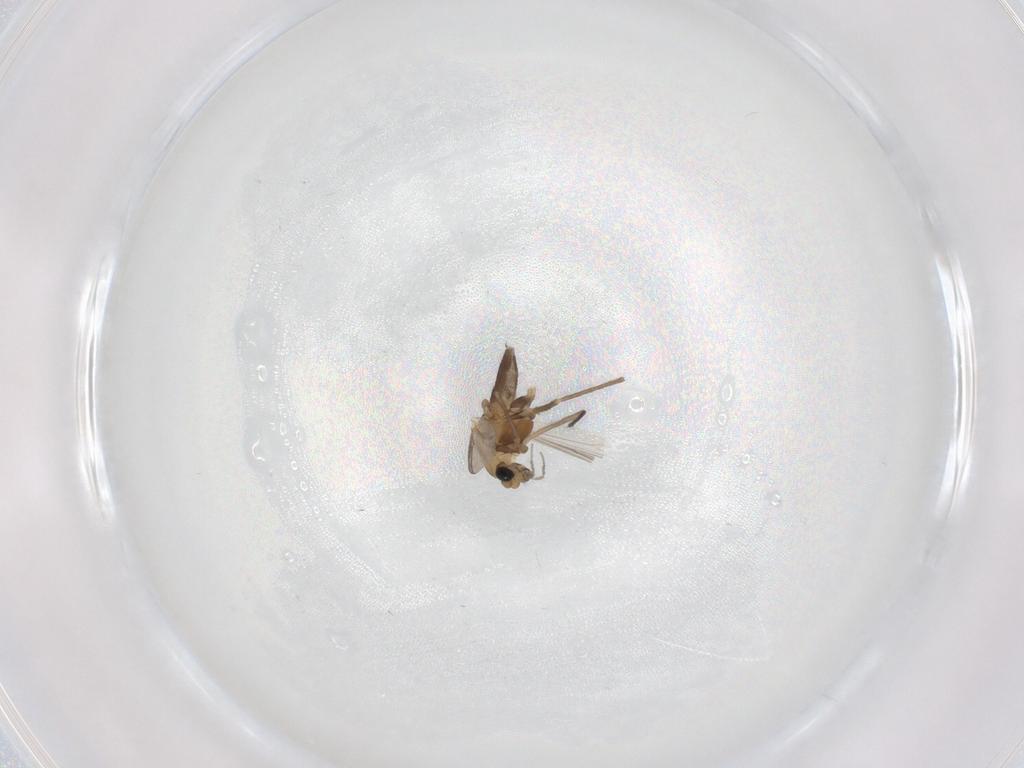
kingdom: Animalia
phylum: Arthropoda
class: Insecta
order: Diptera
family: Chironomidae
